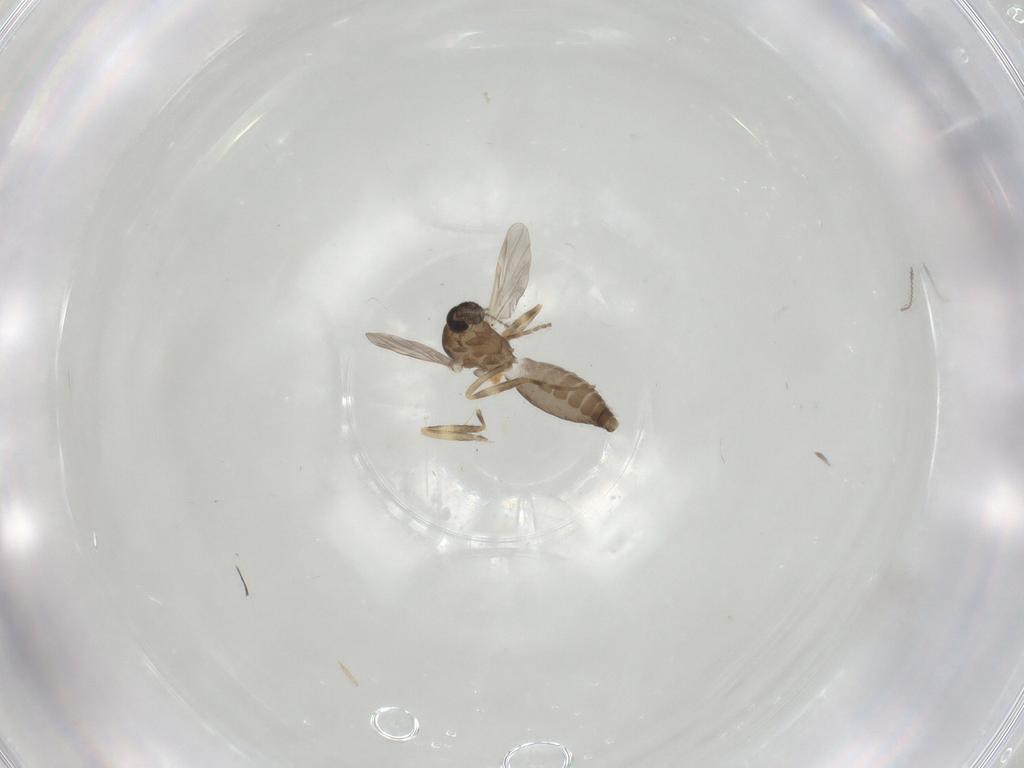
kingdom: Animalia
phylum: Arthropoda
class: Insecta
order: Diptera
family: Ceratopogonidae
